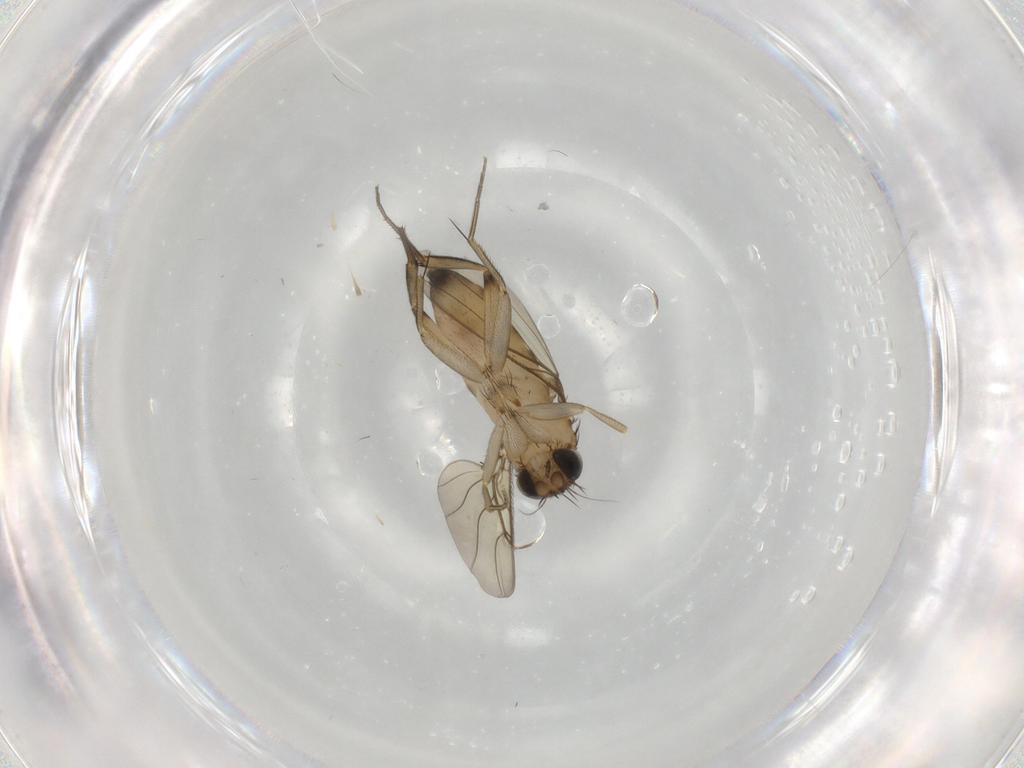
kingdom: Animalia
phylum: Arthropoda
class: Insecta
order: Diptera
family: Phoridae
